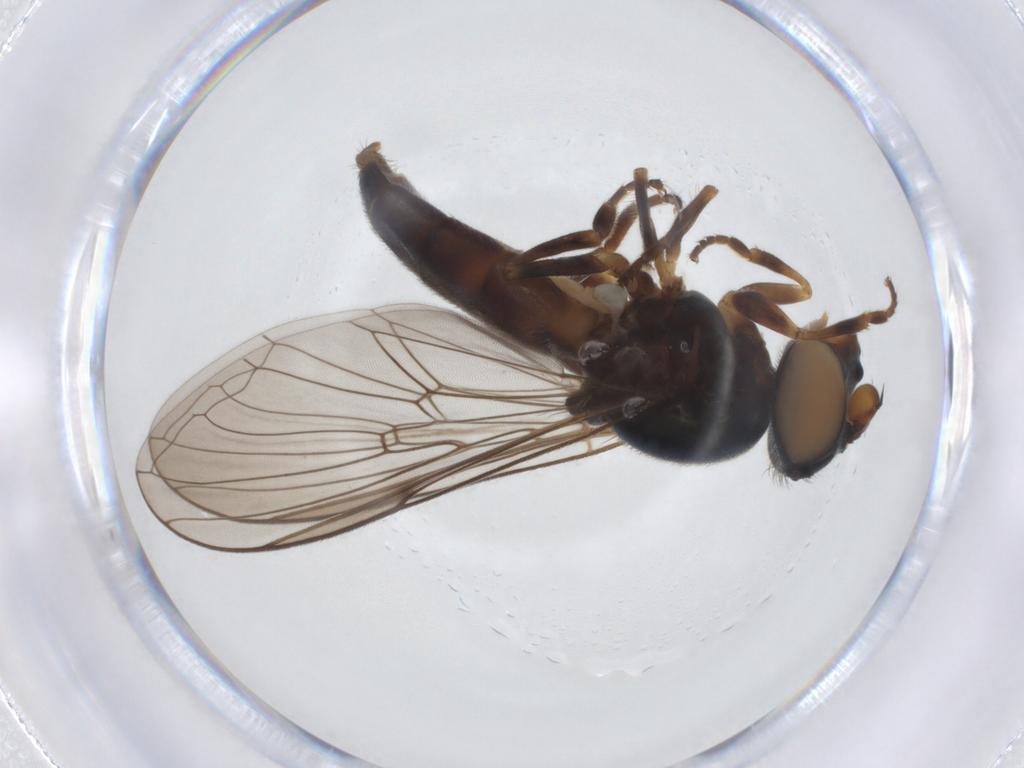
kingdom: Animalia
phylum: Arthropoda
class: Insecta
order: Diptera
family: Syrphidae
